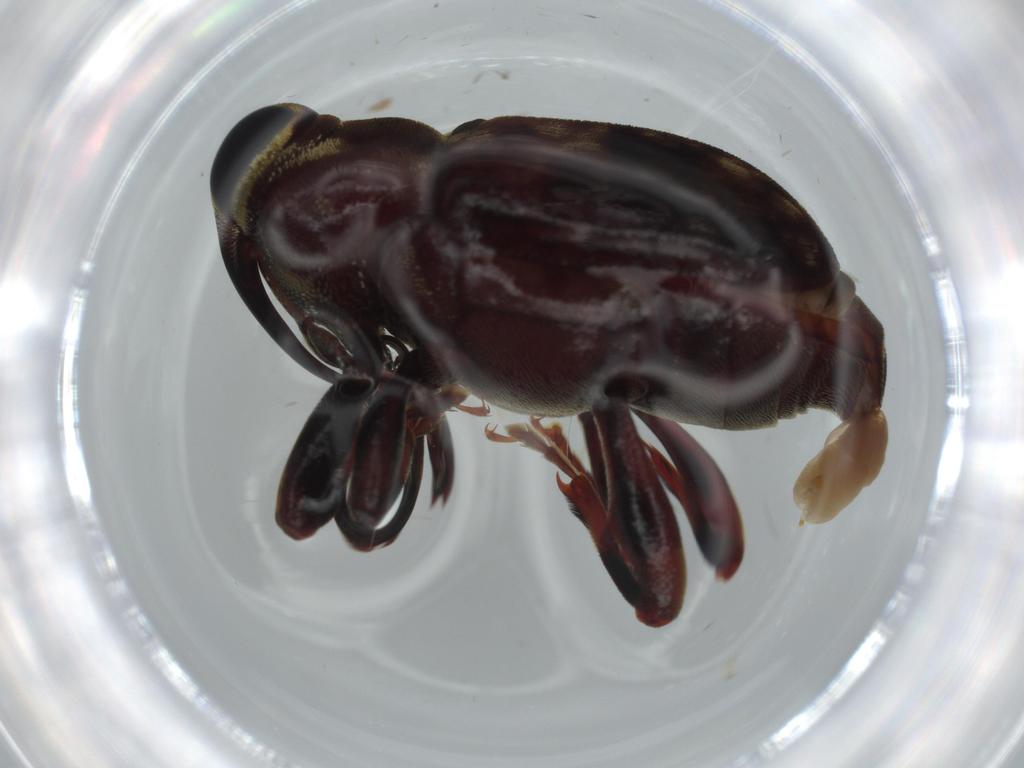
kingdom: Animalia
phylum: Arthropoda
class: Insecta
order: Coleoptera
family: Curculionidae
